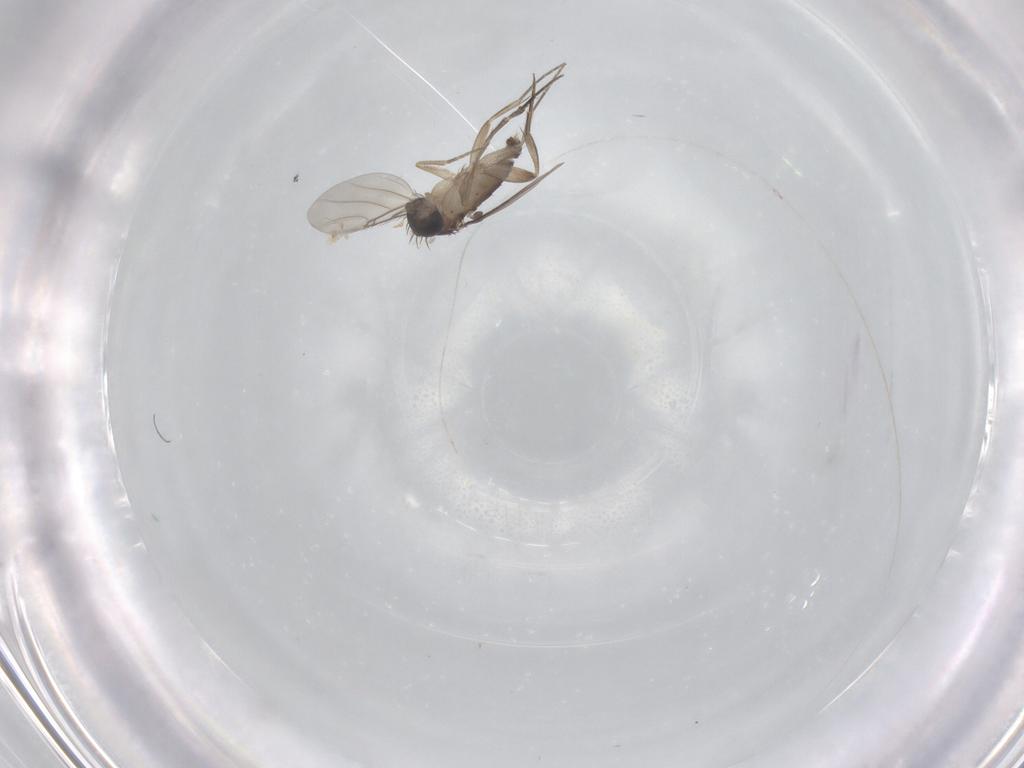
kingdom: Animalia
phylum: Arthropoda
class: Insecta
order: Diptera
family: Phoridae
